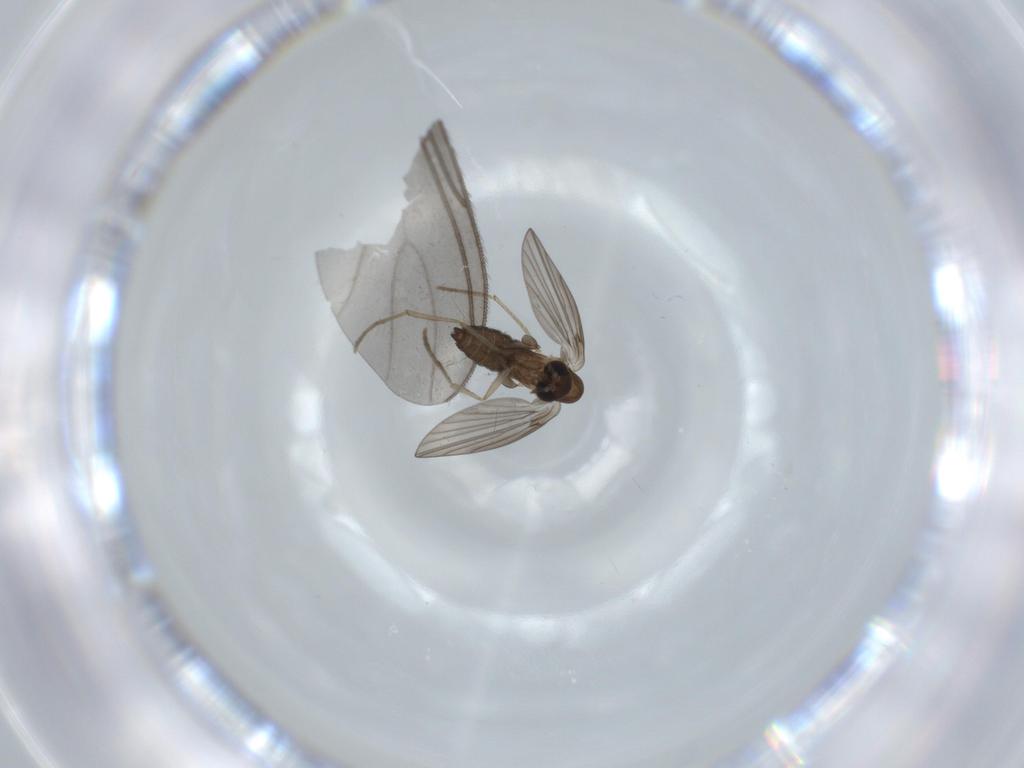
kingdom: Animalia
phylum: Arthropoda
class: Insecta
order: Diptera
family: Sciaridae
